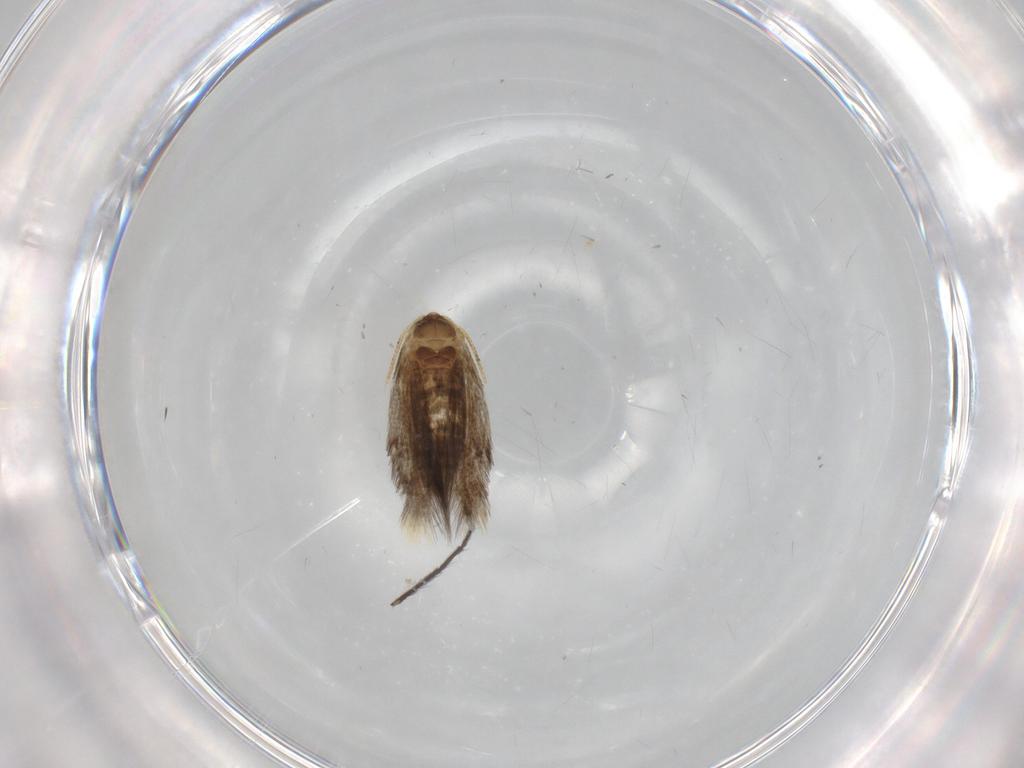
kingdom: Animalia
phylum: Arthropoda
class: Insecta
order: Lepidoptera
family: Copromorphidae
